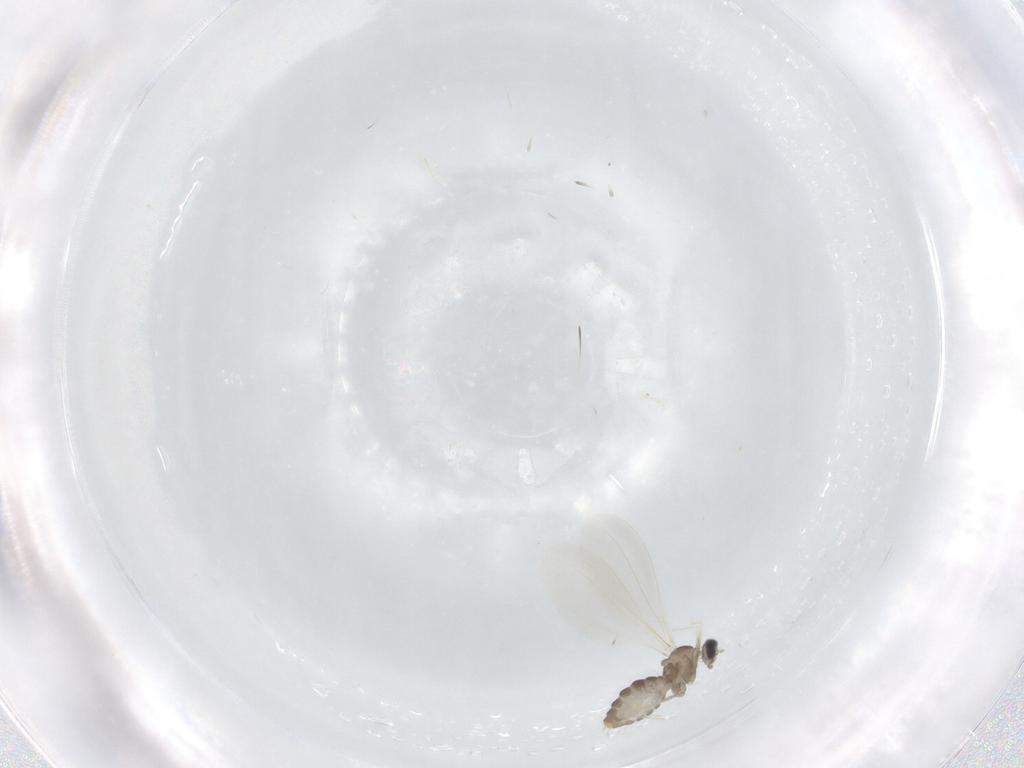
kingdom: Animalia
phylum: Arthropoda
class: Insecta
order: Diptera
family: Cecidomyiidae
